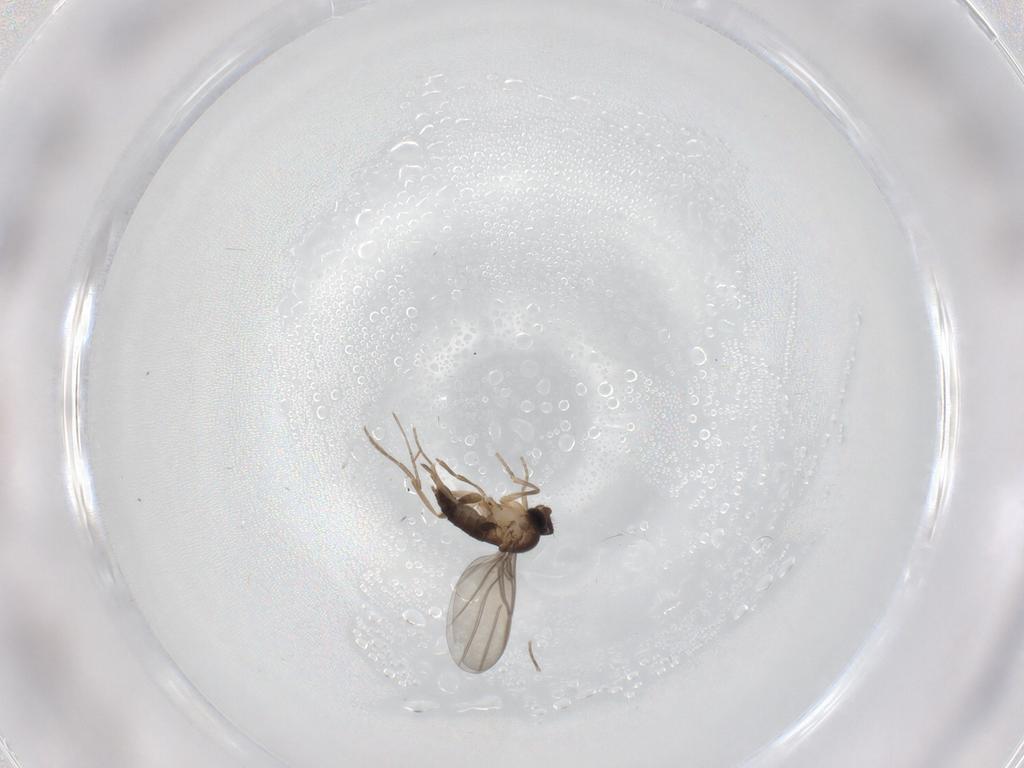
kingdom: Animalia
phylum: Arthropoda
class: Insecta
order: Diptera
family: Phoridae
